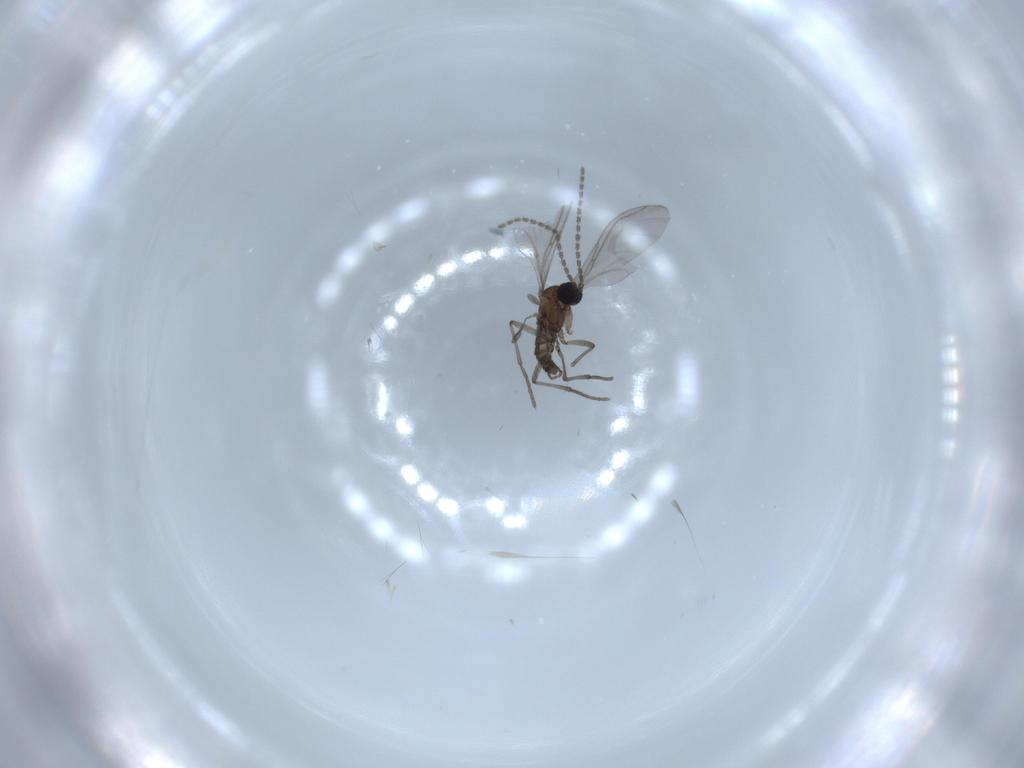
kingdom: Animalia
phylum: Arthropoda
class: Insecta
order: Diptera
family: Sciaridae
